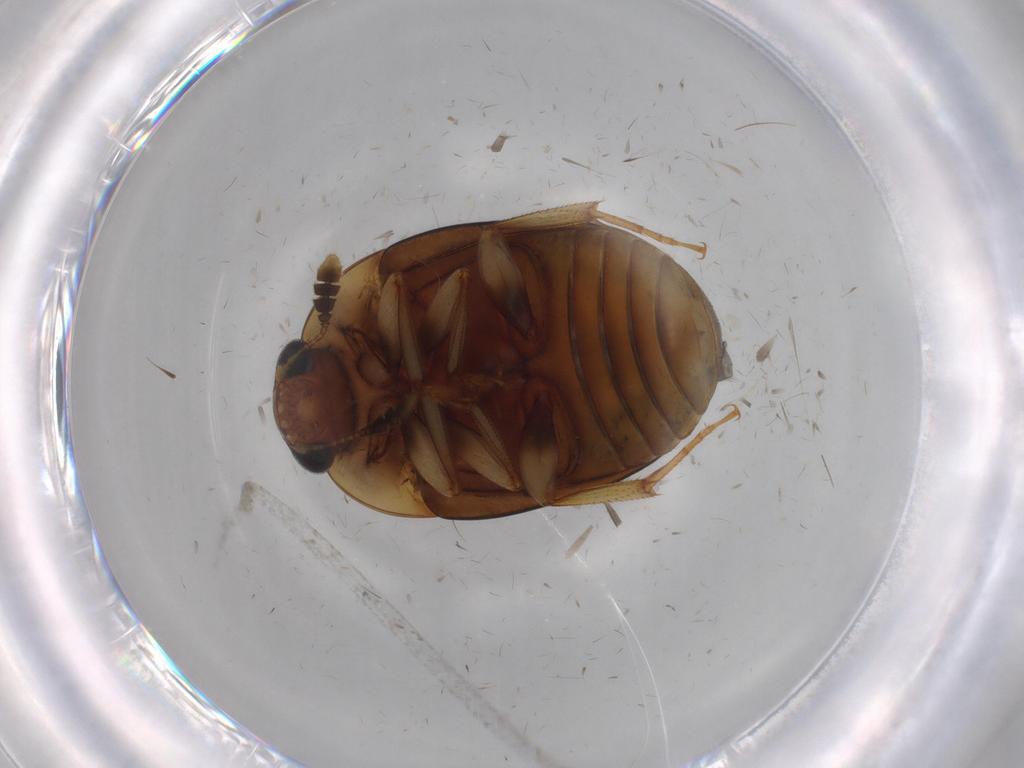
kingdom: Animalia
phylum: Arthropoda
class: Insecta
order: Coleoptera
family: Nitidulidae
